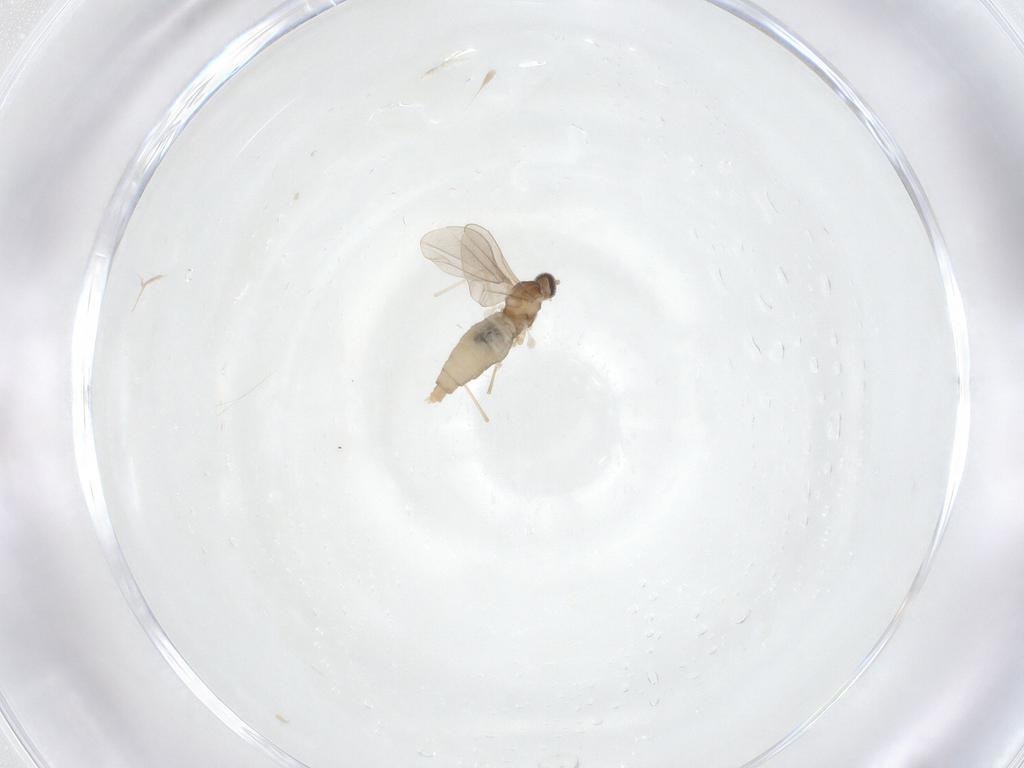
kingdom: Animalia
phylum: Arthropoda
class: Insecta
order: Diptera
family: Cecidomyiidae
